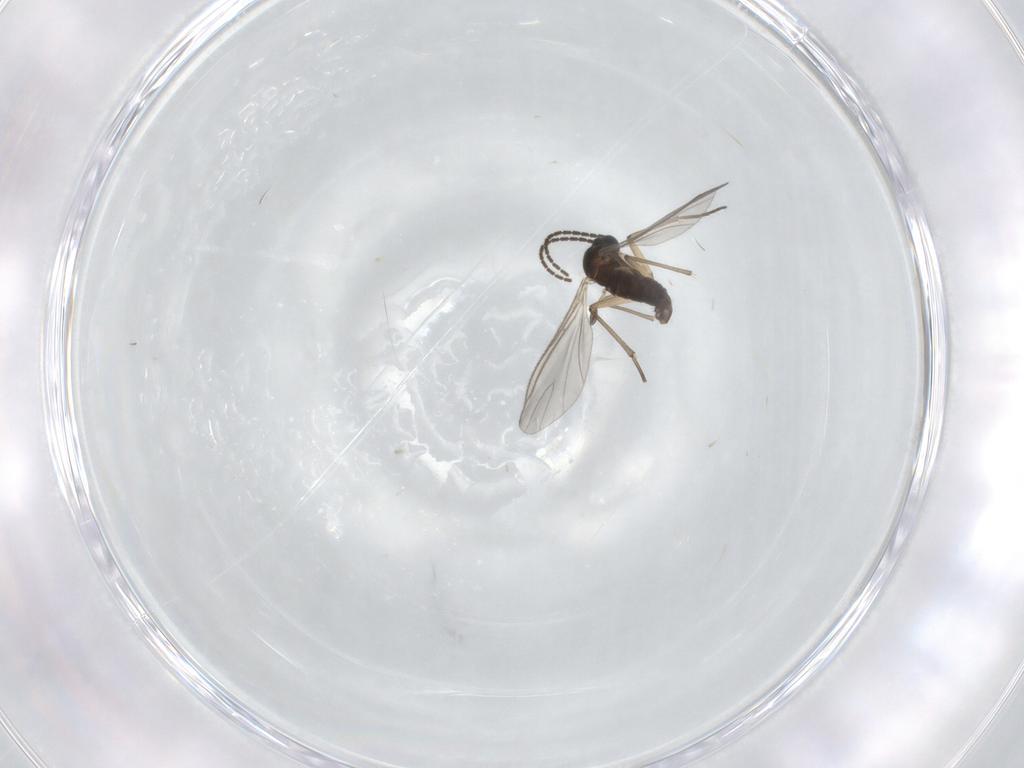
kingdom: Animalia
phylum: Arthropoda
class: Insecta
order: Diptera
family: Sciaridae
